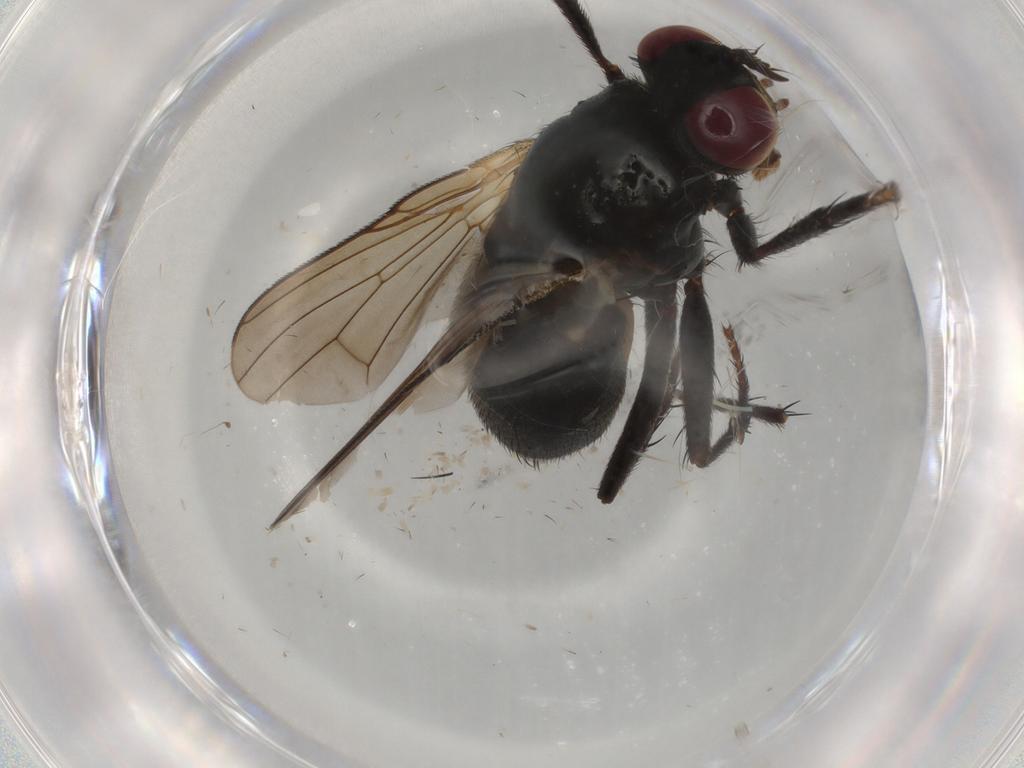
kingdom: Animalia
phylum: Arthropoda
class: Insecta
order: Diptera
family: Muscidae
